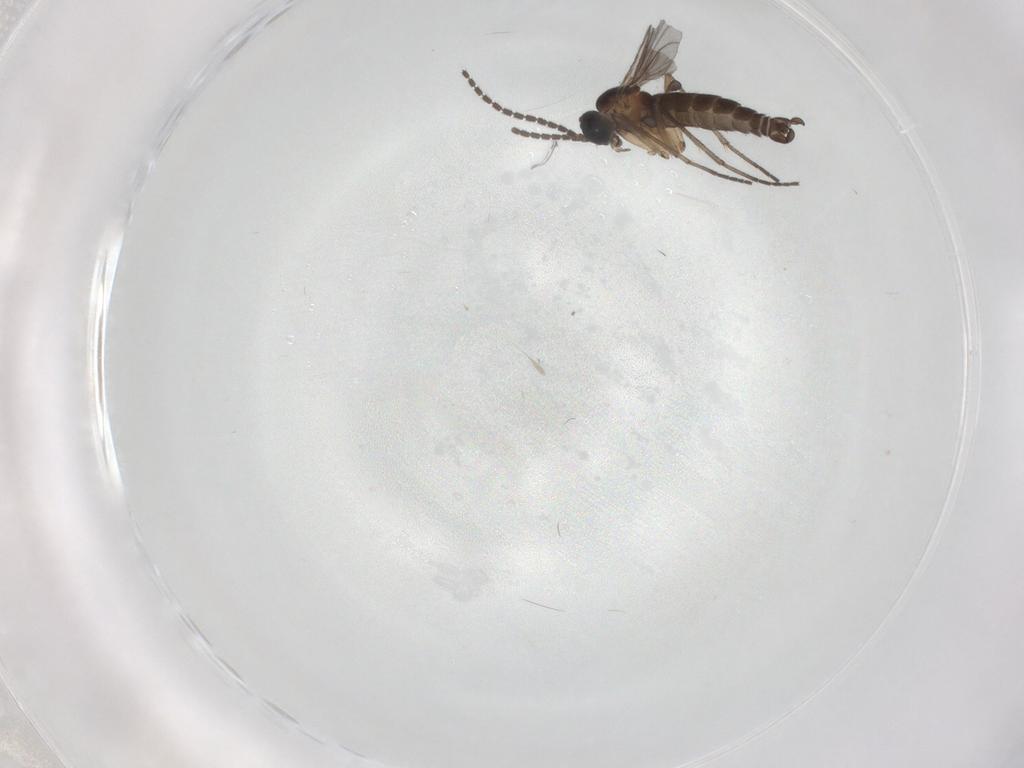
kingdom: Animalia
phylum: Arthropoda
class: Insecta
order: Diptera
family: Sciaridae
